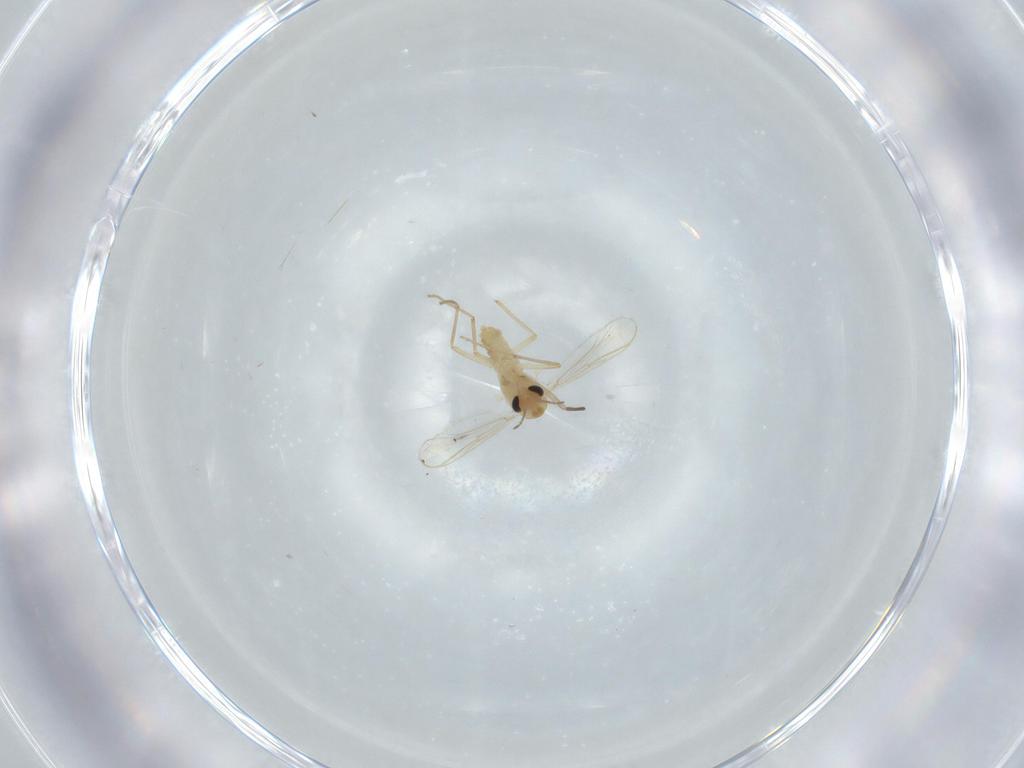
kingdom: Animalia
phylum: Arthropoda
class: Insecta
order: Diptera
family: Chironomidae
